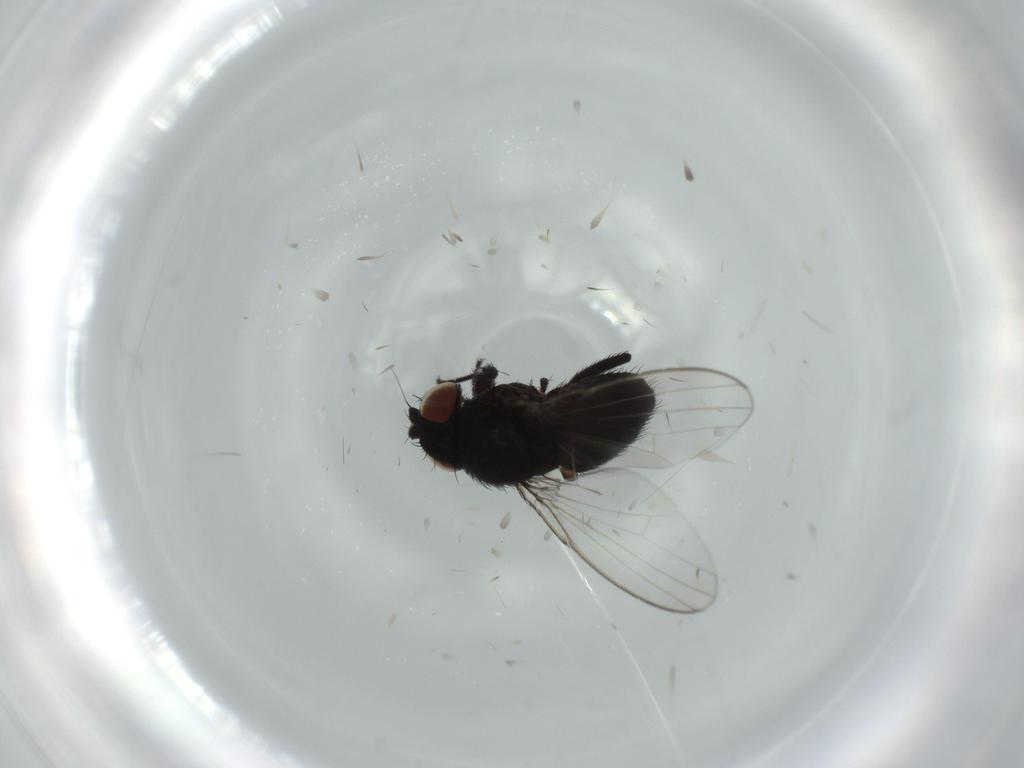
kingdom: Animalia
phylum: Arthropoda
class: Insecta
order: Diptera
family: Milichiidae
